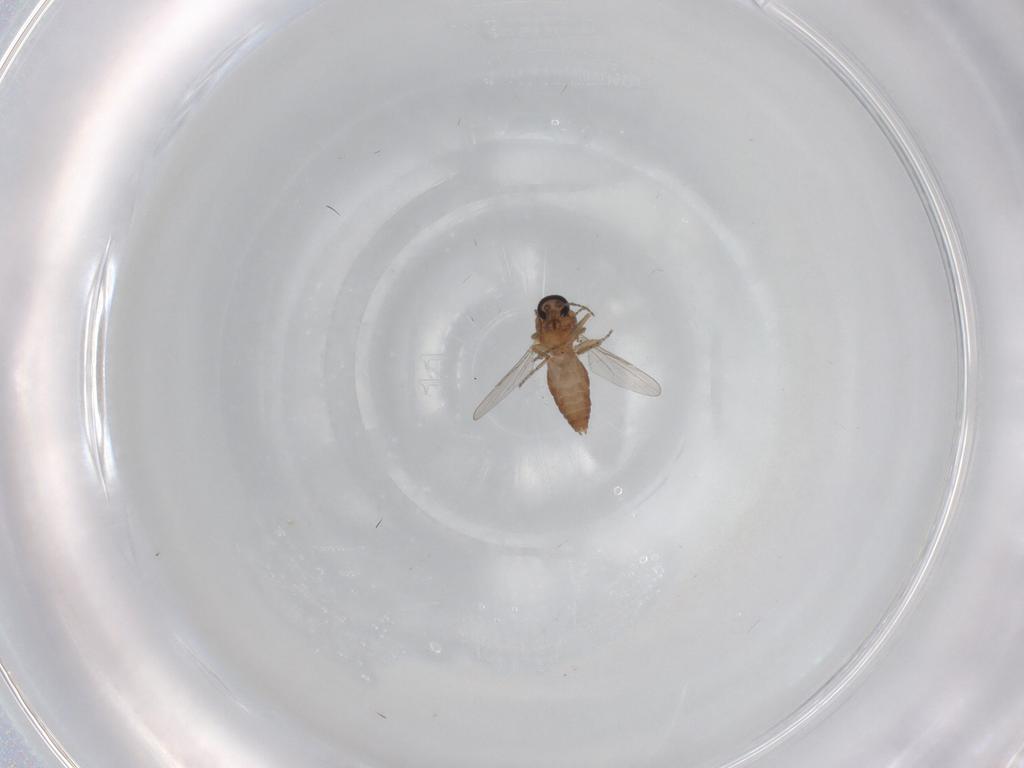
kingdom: Animalia
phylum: Arthropoda
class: Insecta
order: Diptera
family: Ceratopogonidae
